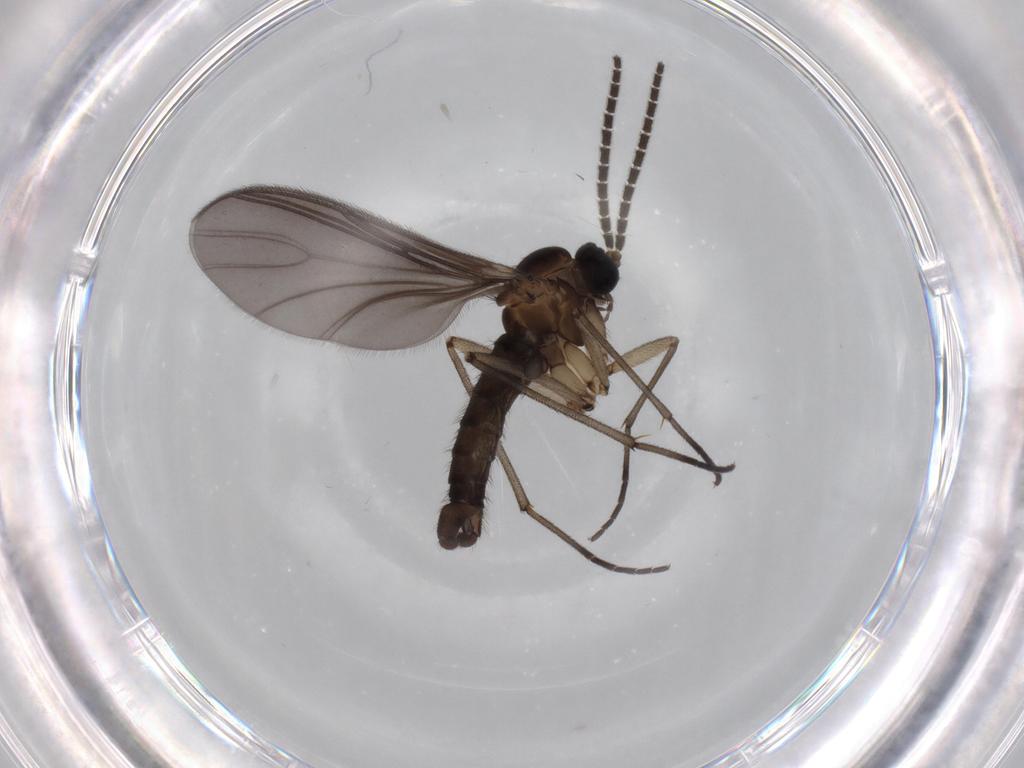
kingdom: Animalia
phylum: Arthropoda
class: Insecta
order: Diptera
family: Sciaridae
